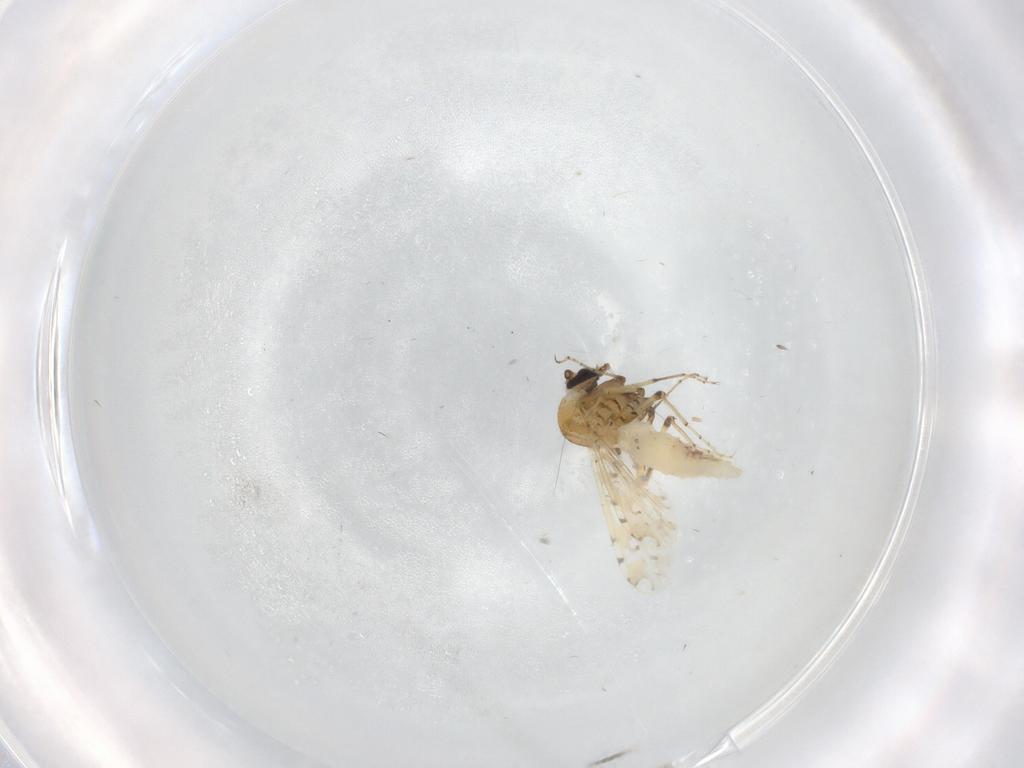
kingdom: Animalia
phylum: Arthropoda
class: Insecta
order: Diptera
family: Ceratopogonidae
